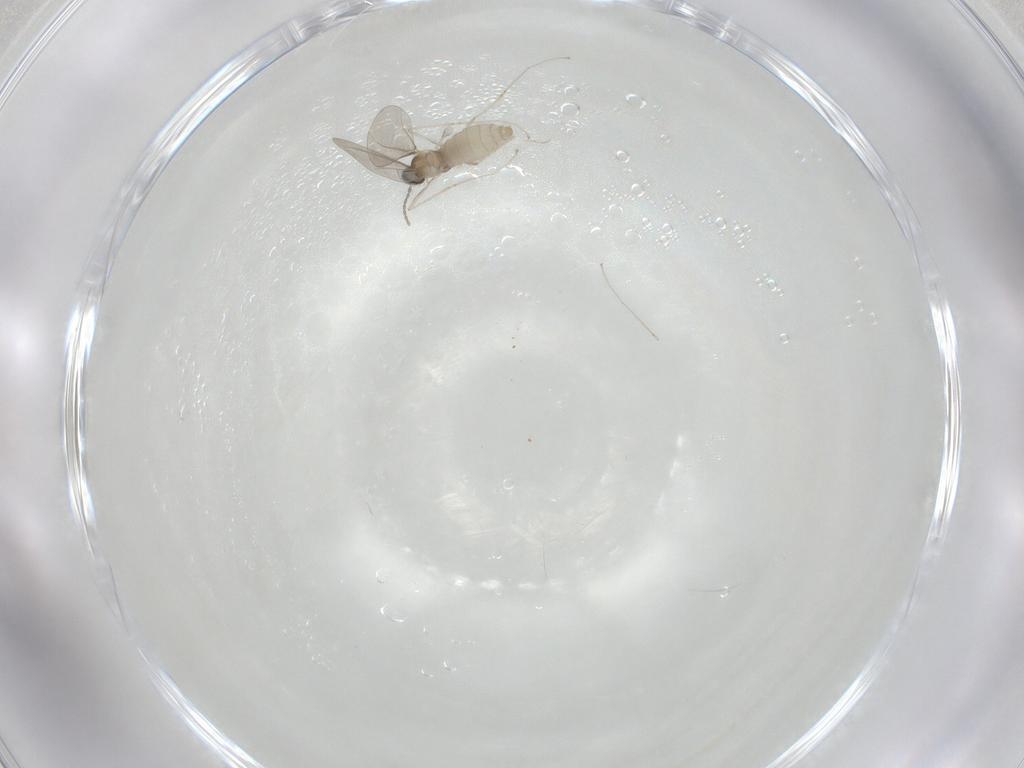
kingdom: Animalia
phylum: Arthropoda
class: Insecta
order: Diptera
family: Cecidomyiidae
